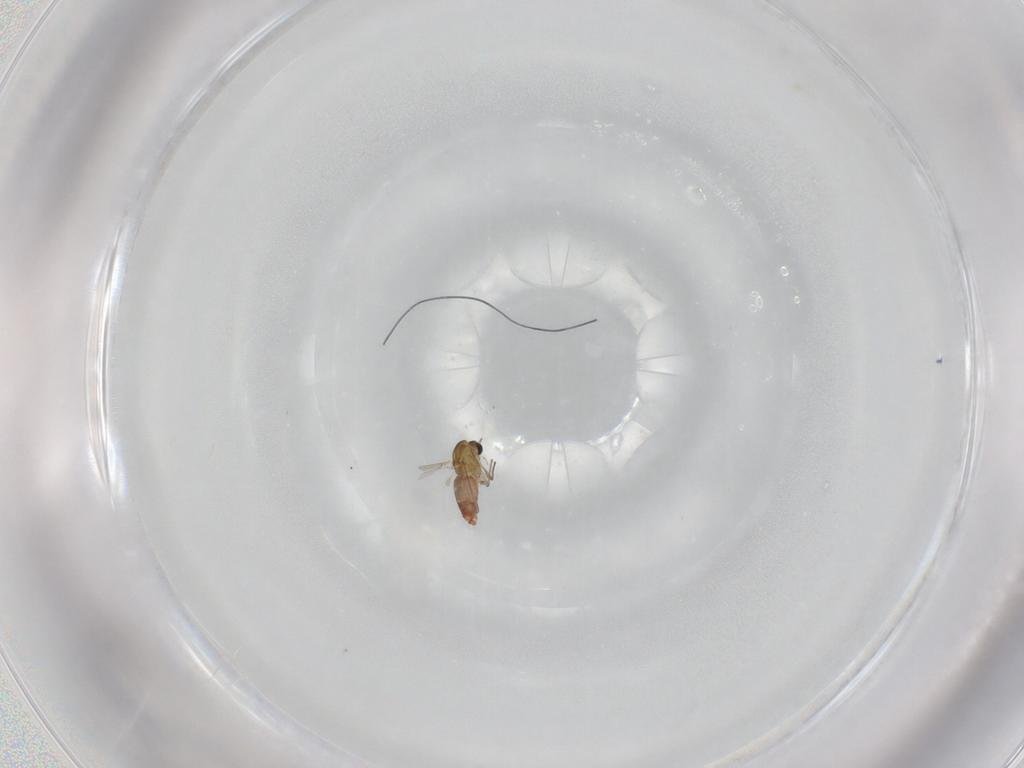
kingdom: Animalia
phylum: Arthropoda
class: Insecta
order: Diptera
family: Chironomidae
